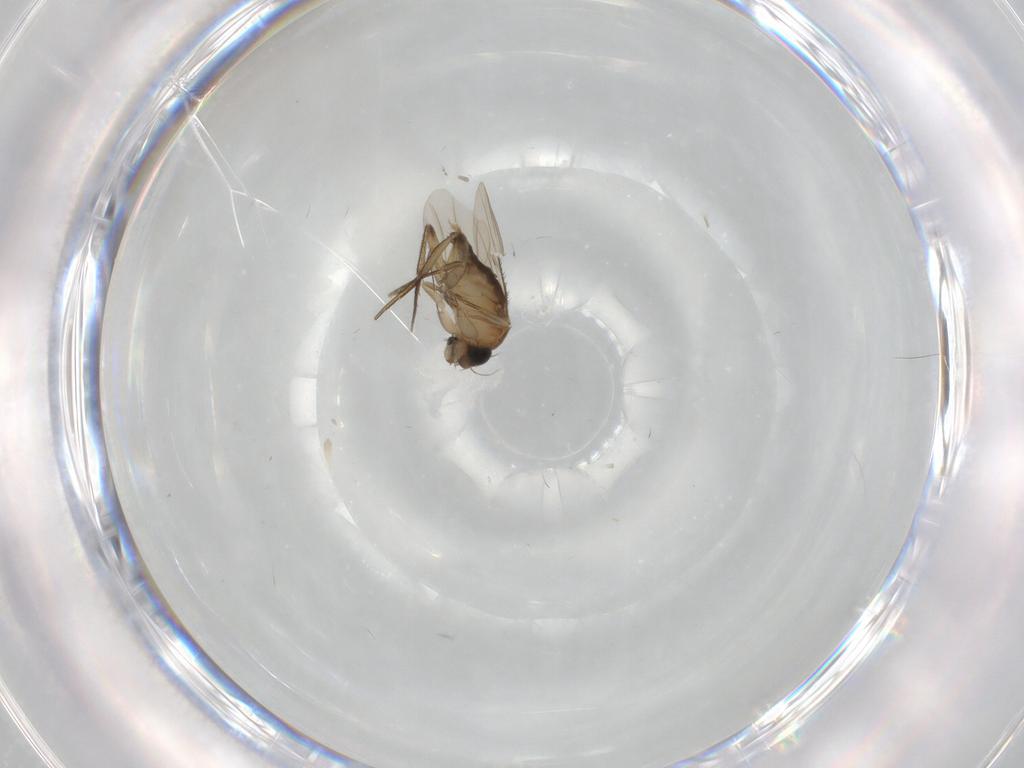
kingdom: Animalia
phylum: Arthropoda
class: Insecta
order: Diptera
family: Phoridae
